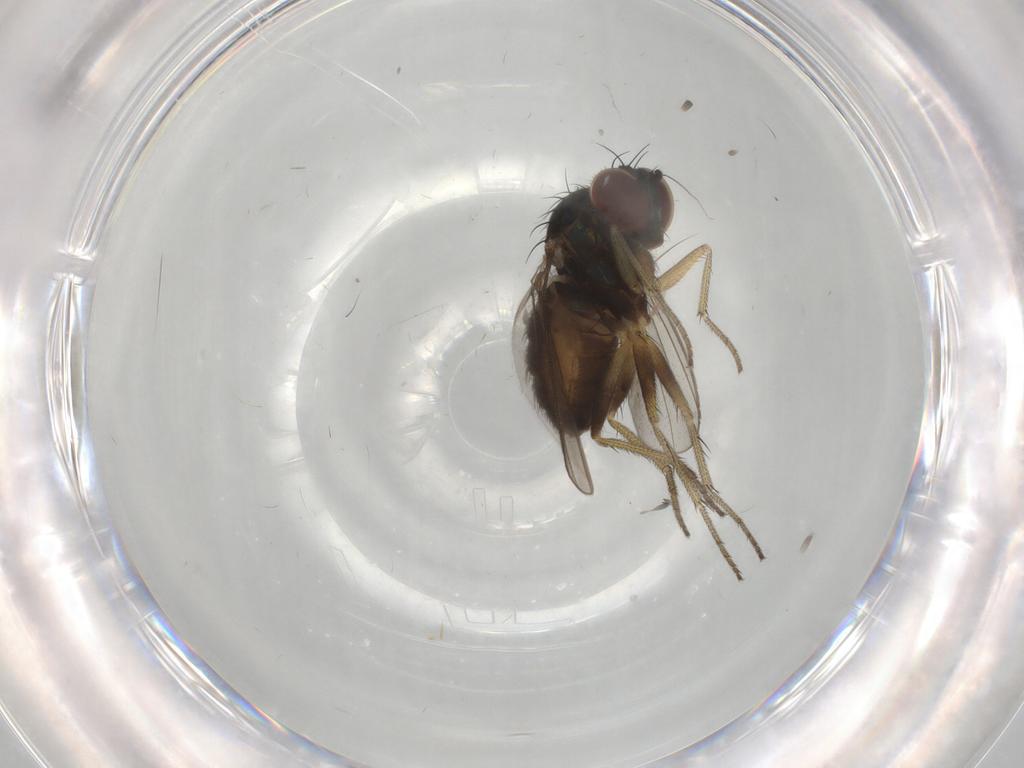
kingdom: Animalia
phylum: Arthropoda
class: Insecta
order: Diptera
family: Dolichopodidae
